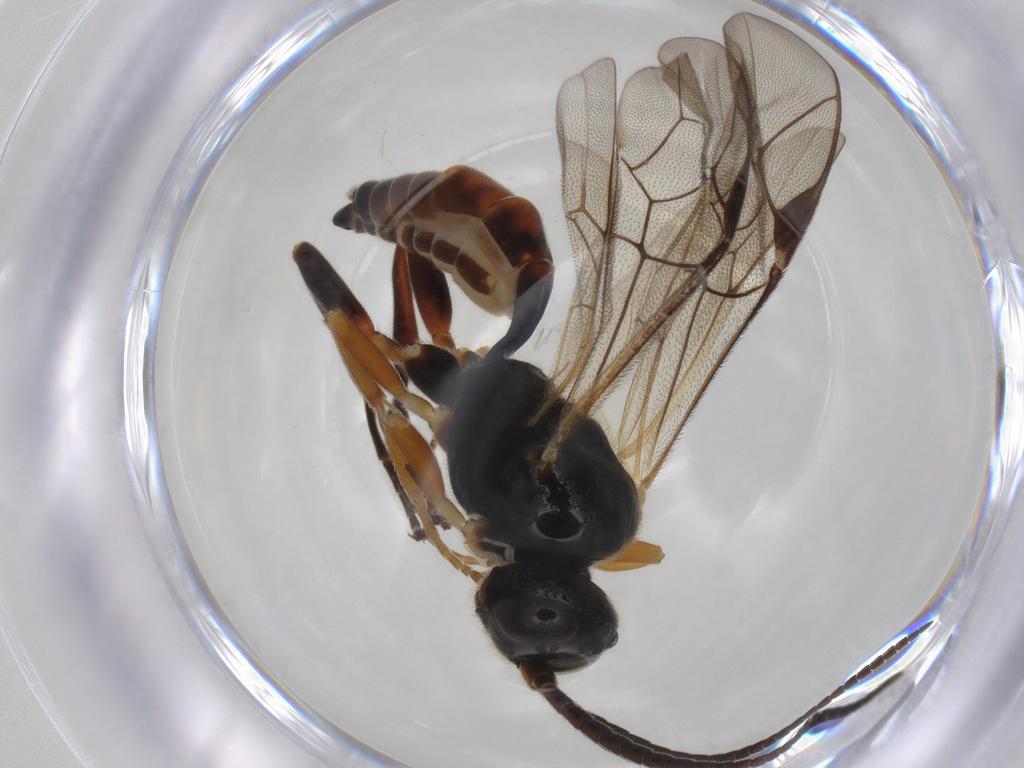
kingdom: Animalia
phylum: Arthropoda
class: Insecta
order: Hymenoptera
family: Ichneumonidae
